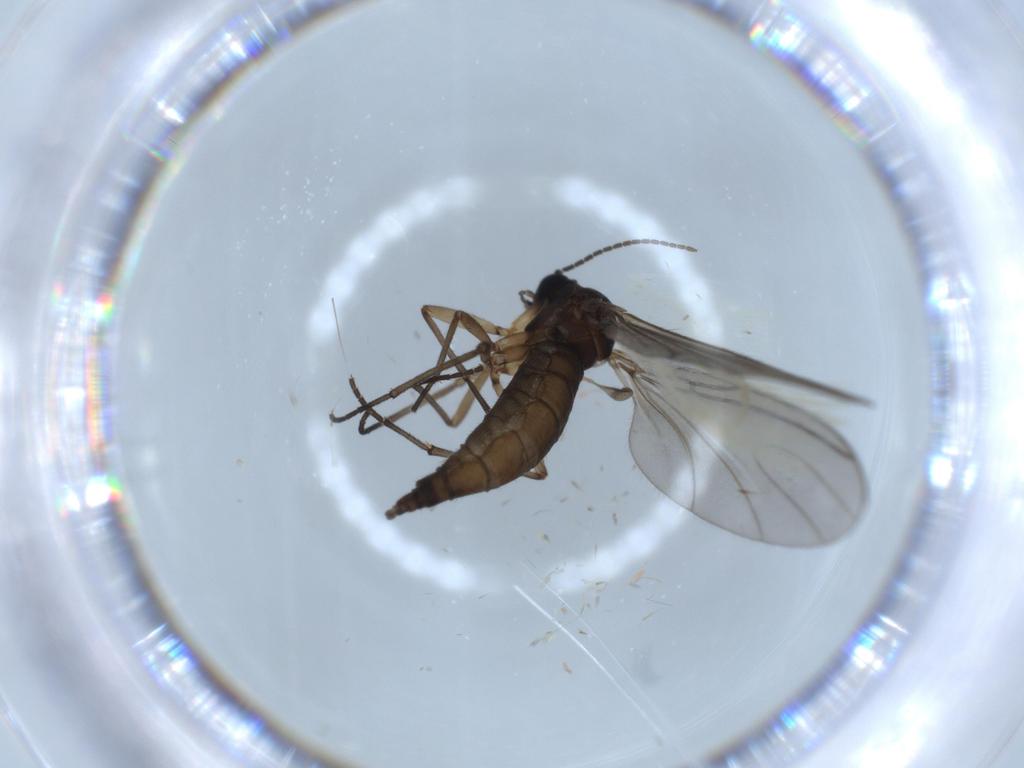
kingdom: Animalia
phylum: Arthropoda
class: Insecta
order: Diptera
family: Sciaridae
